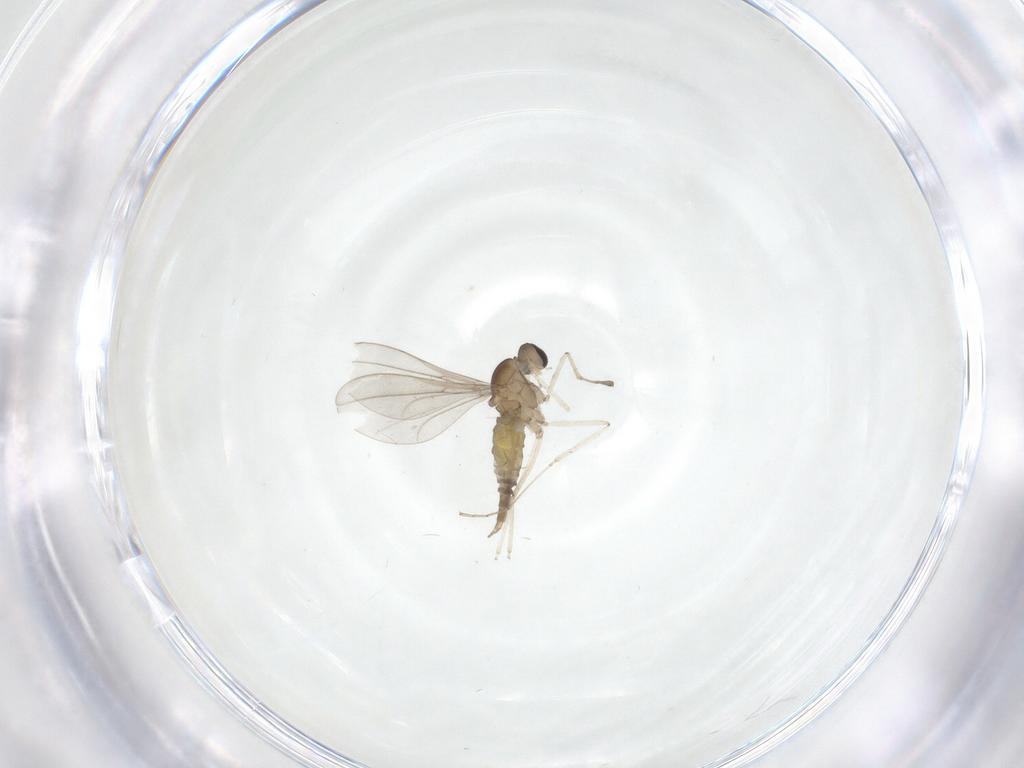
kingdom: Animalia
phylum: Arthropoda
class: Insecta
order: Diptera
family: Cecidomyiidae
